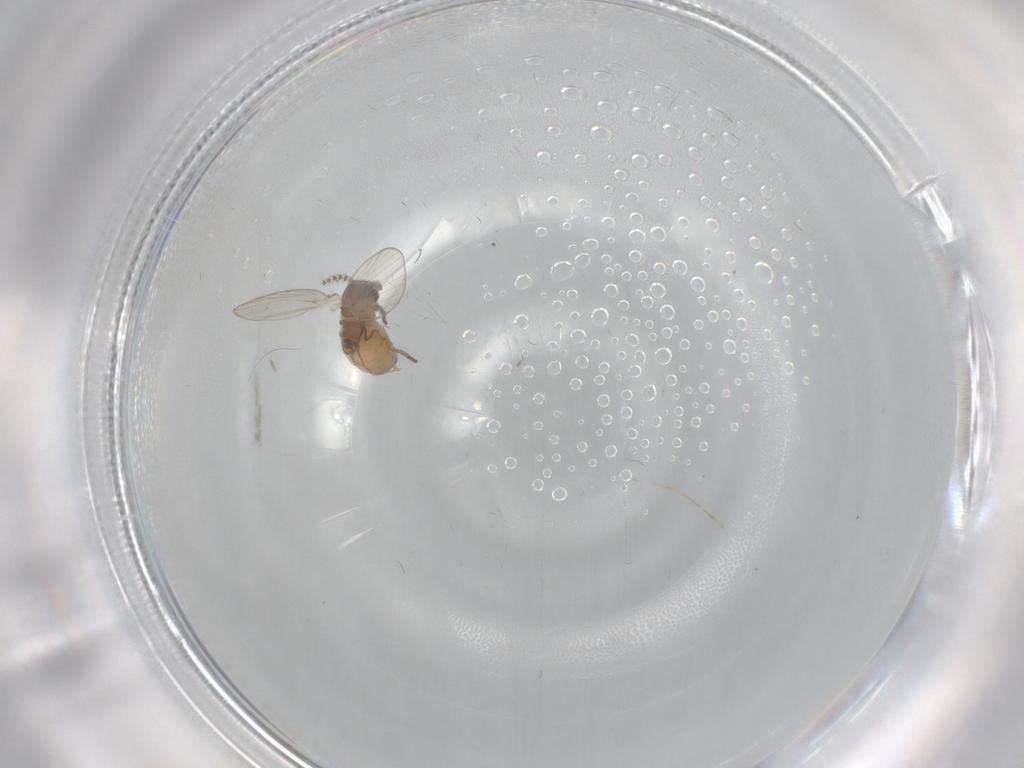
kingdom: Animalia
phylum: Arthropoda
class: Insecta
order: Diptera
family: Psychodidae
